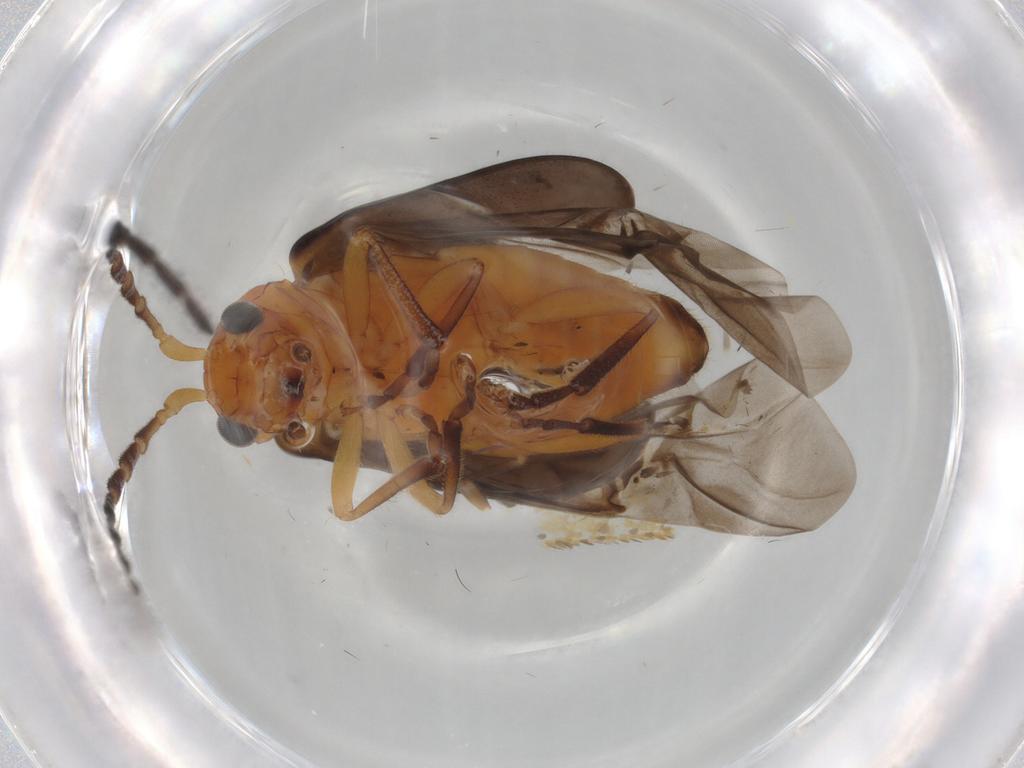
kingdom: Animalia
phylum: Arthropoda
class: Insecta
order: Coleoptera
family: Chrysomelidae
